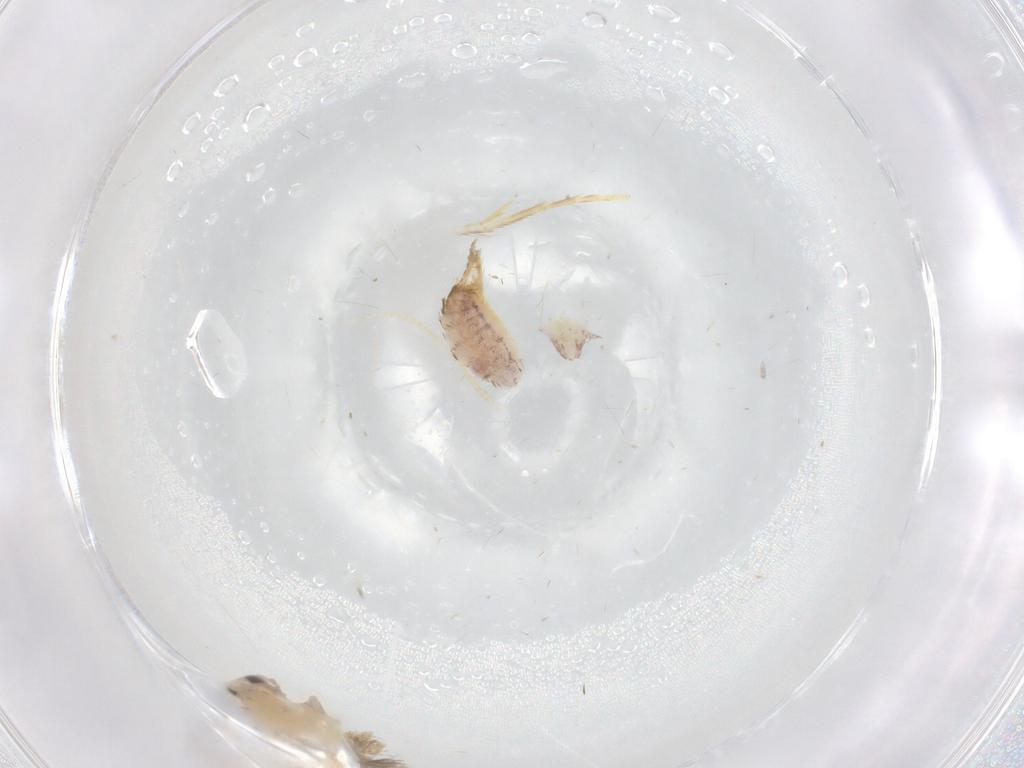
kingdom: Animalia
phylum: Arthropoda
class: Insecta
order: Lepidoptera
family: Lyonetiidae
